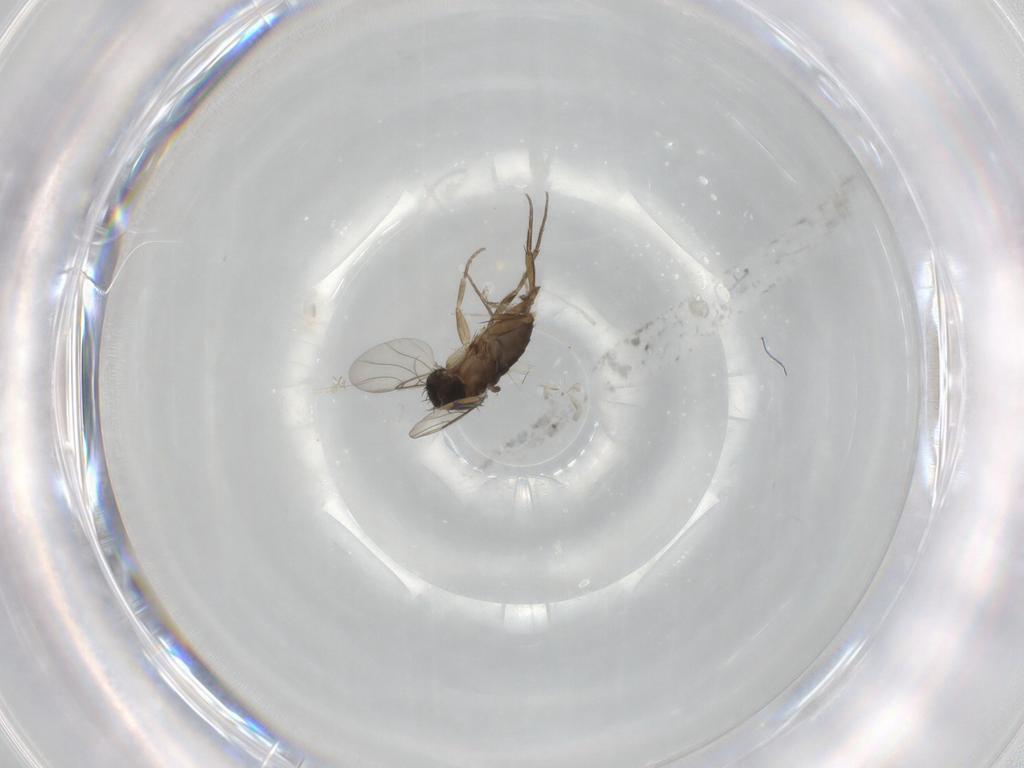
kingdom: Animalia
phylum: Arthropoda
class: Insecta
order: Diptera
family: Phoridae
